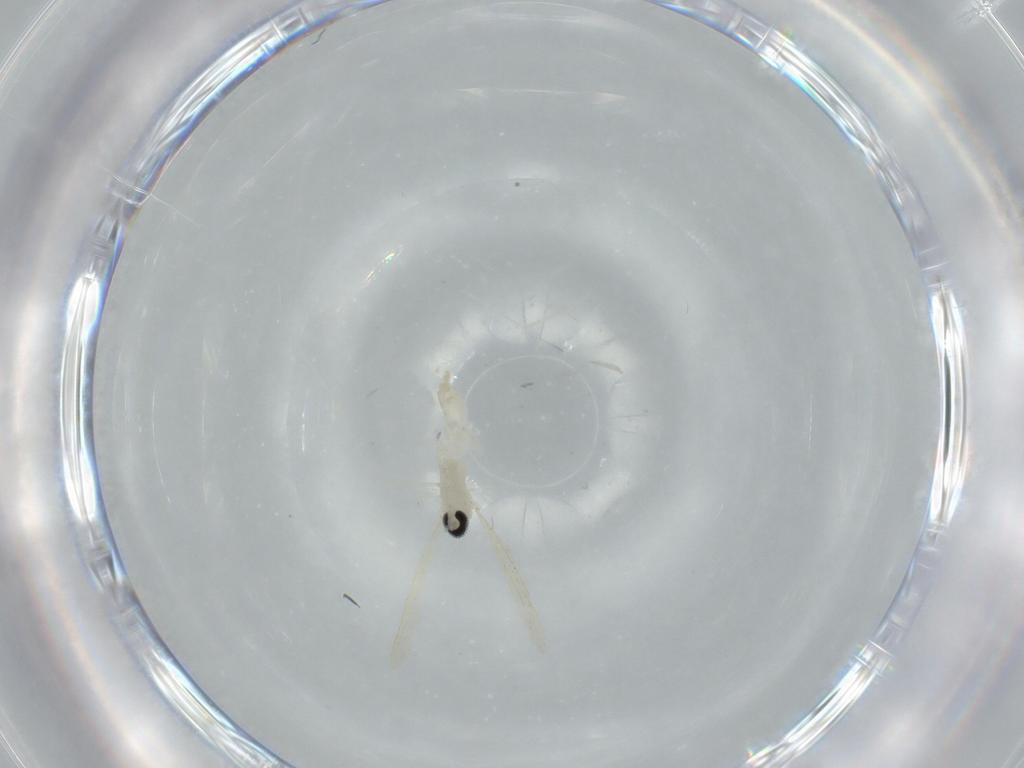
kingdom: Animalia
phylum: Arthropoda
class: Insecta
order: Diptera
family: Cecidomyiidae
